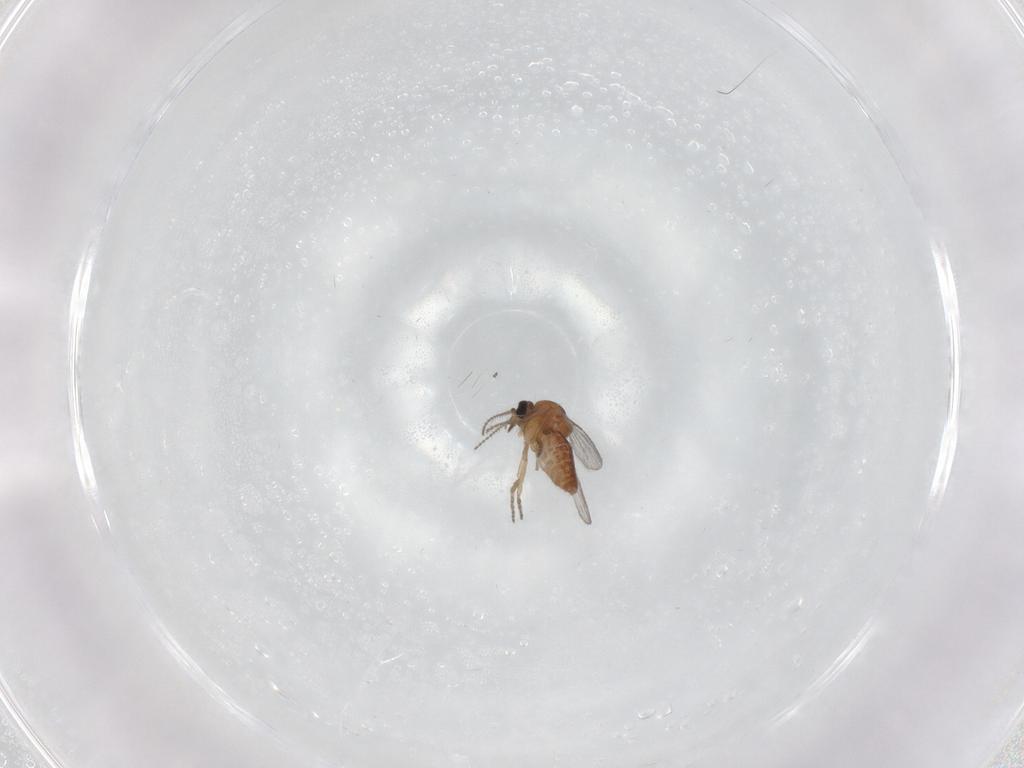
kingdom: Animalia
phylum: Arthropoda
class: Insecta
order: Diptera
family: Ceratopogonidae
